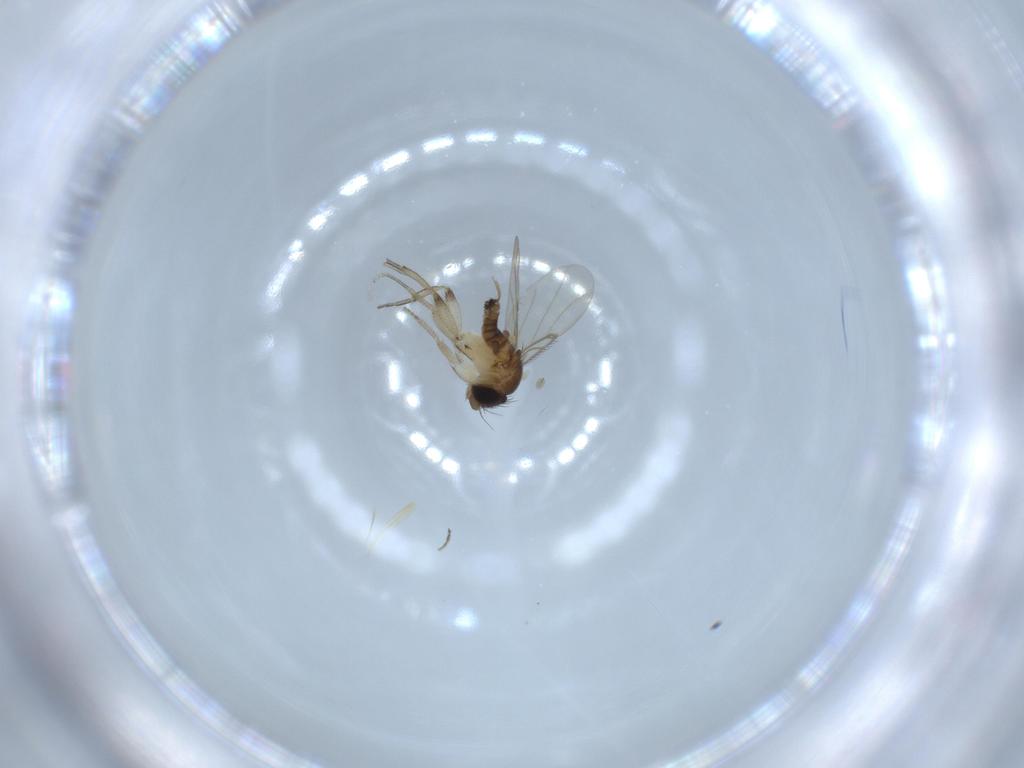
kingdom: Animalia
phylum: Arthropoda
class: Insecta
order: Diptera
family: Phoridae
